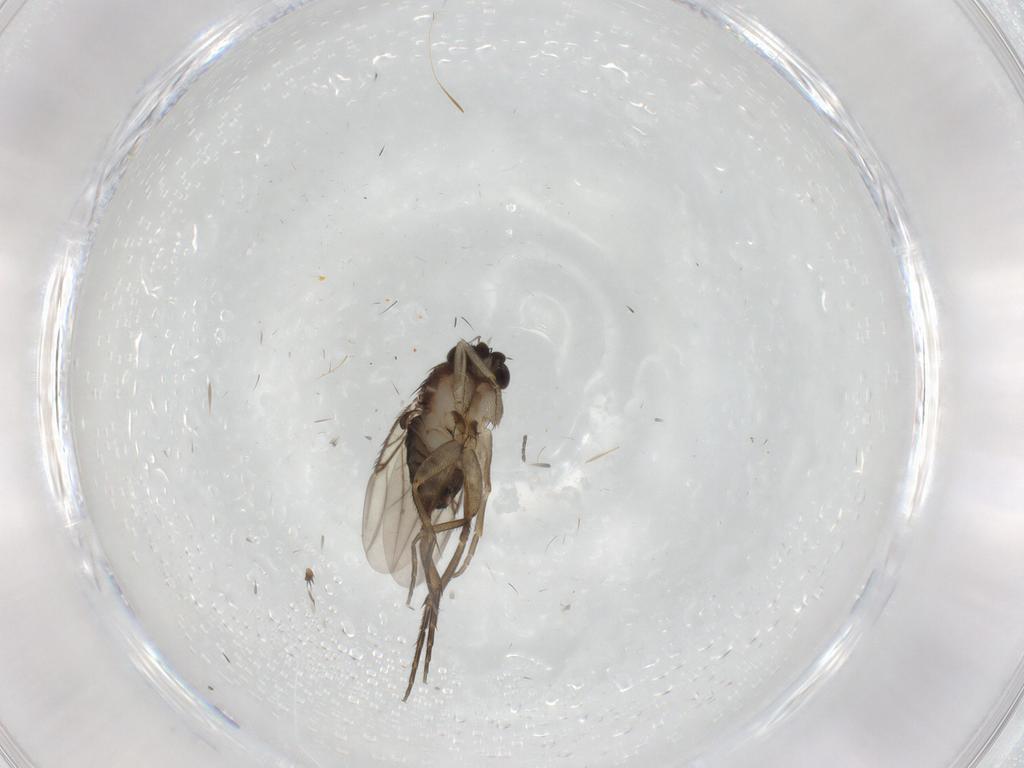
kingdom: Animalia
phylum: Arthropoda
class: Insecta
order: Diptera
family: Phoridae
